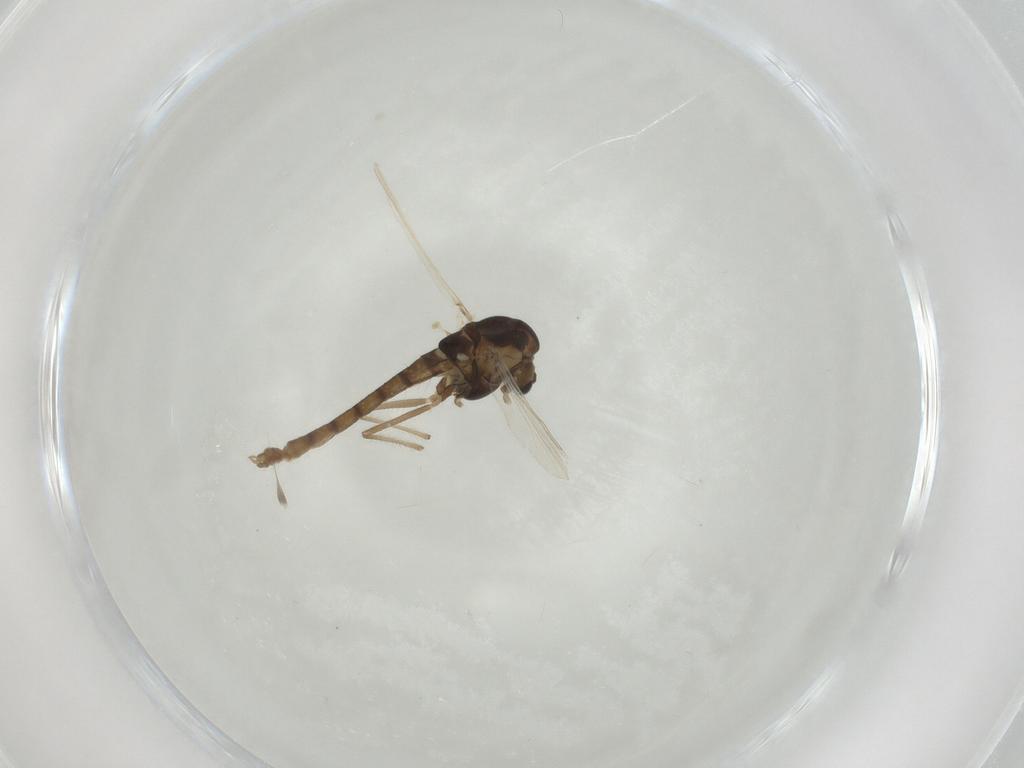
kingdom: Animalia
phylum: Arthropoda
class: Insecta
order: Diptera
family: Chironomidae
